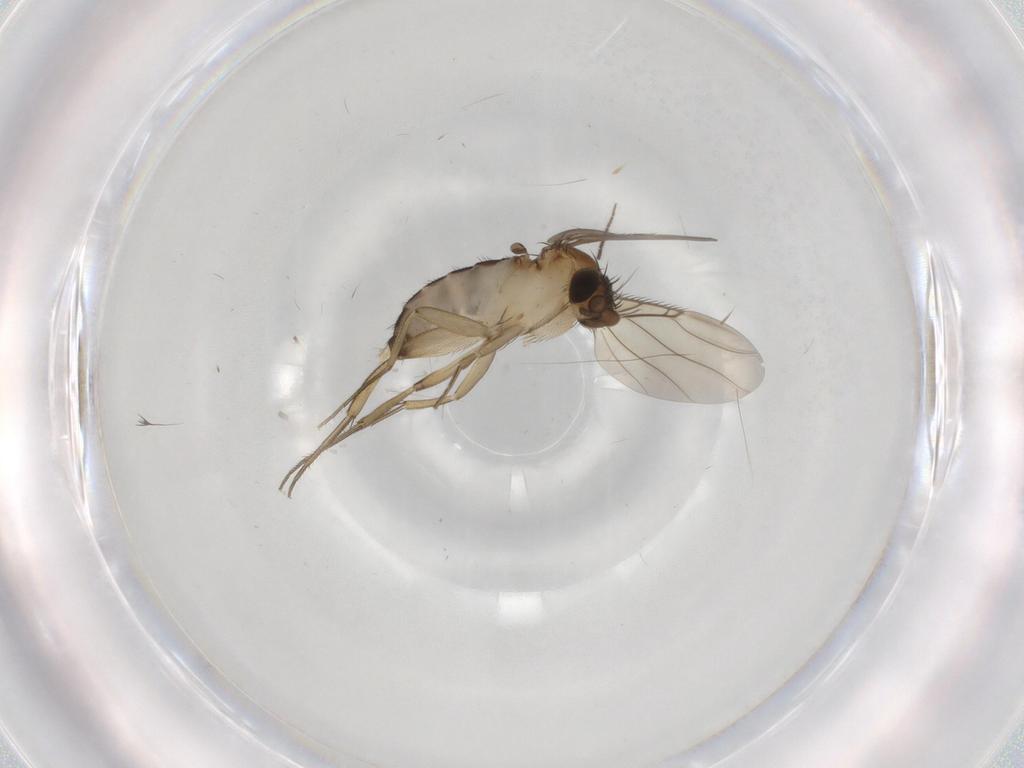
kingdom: Animalia
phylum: Arthropoda
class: Insecta
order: Diptera
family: Phoridae
